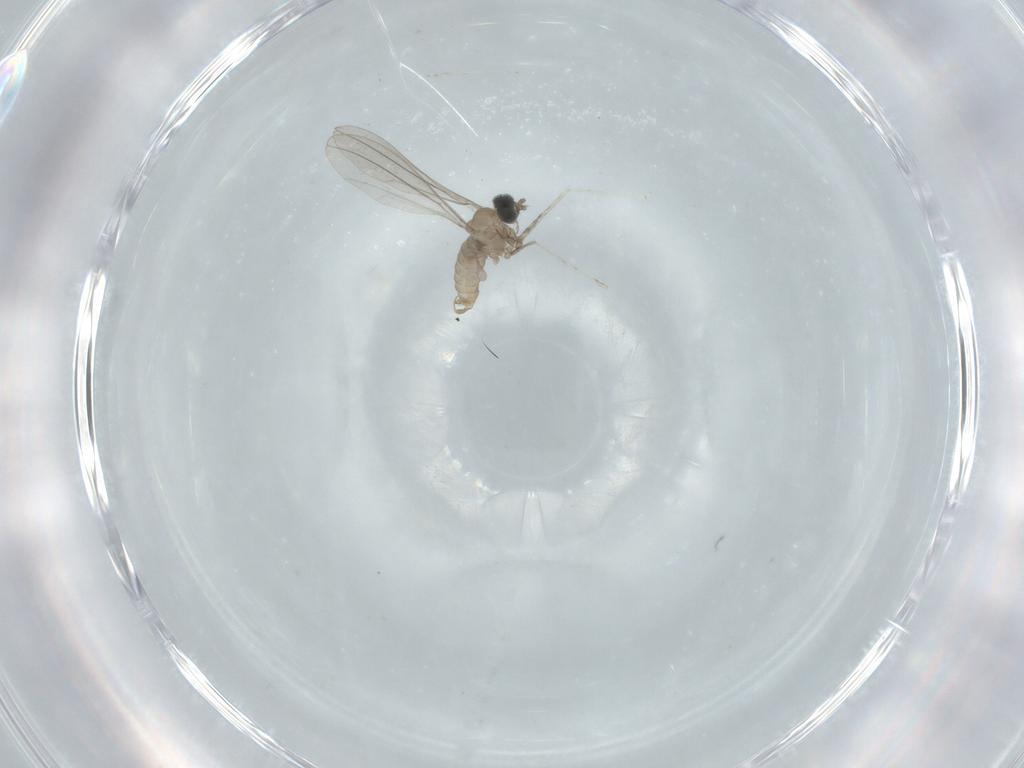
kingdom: Animalia
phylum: Arthropoda
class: Insecta
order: Diptera
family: Cecidomyiidae
